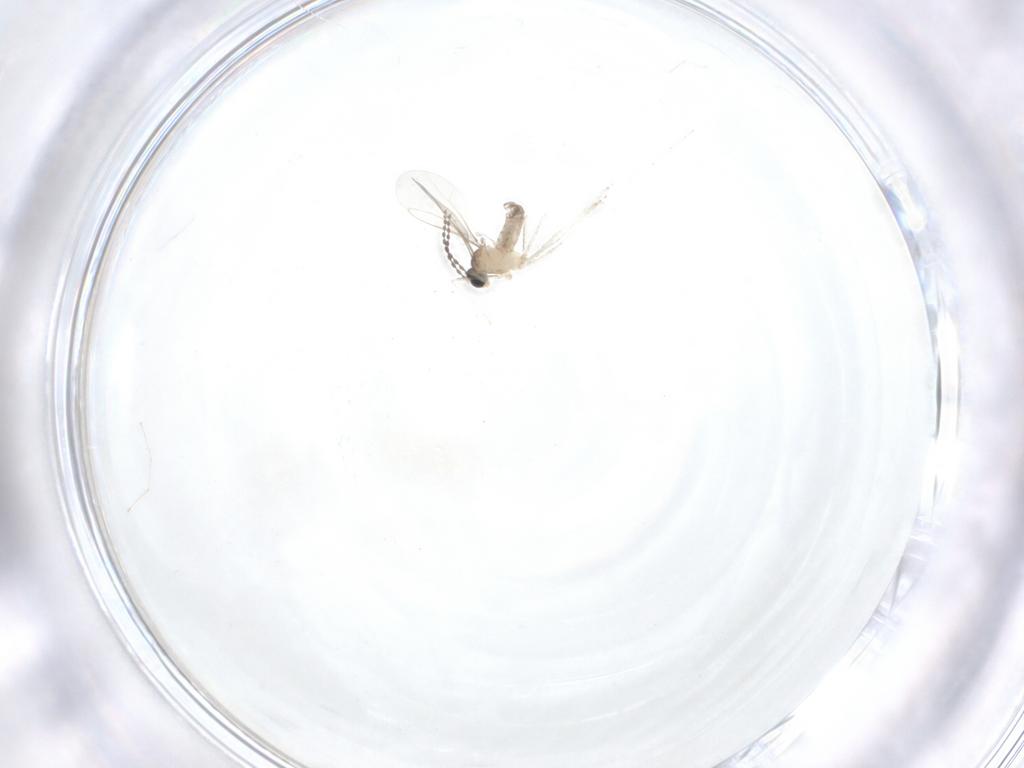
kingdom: Animalia
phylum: Arthropoda
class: Insecta
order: Diptera
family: Cecidomyiidae
